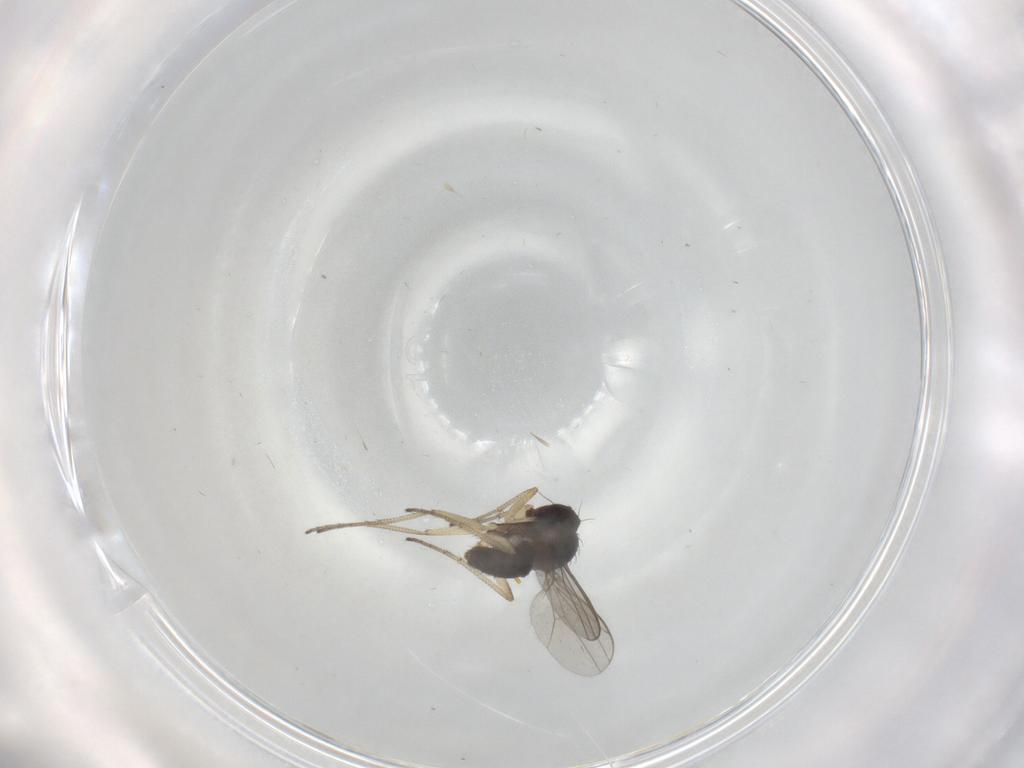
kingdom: Animalia
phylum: Arthropoda
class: Insecta
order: Diptera
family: Dolichopodidae
